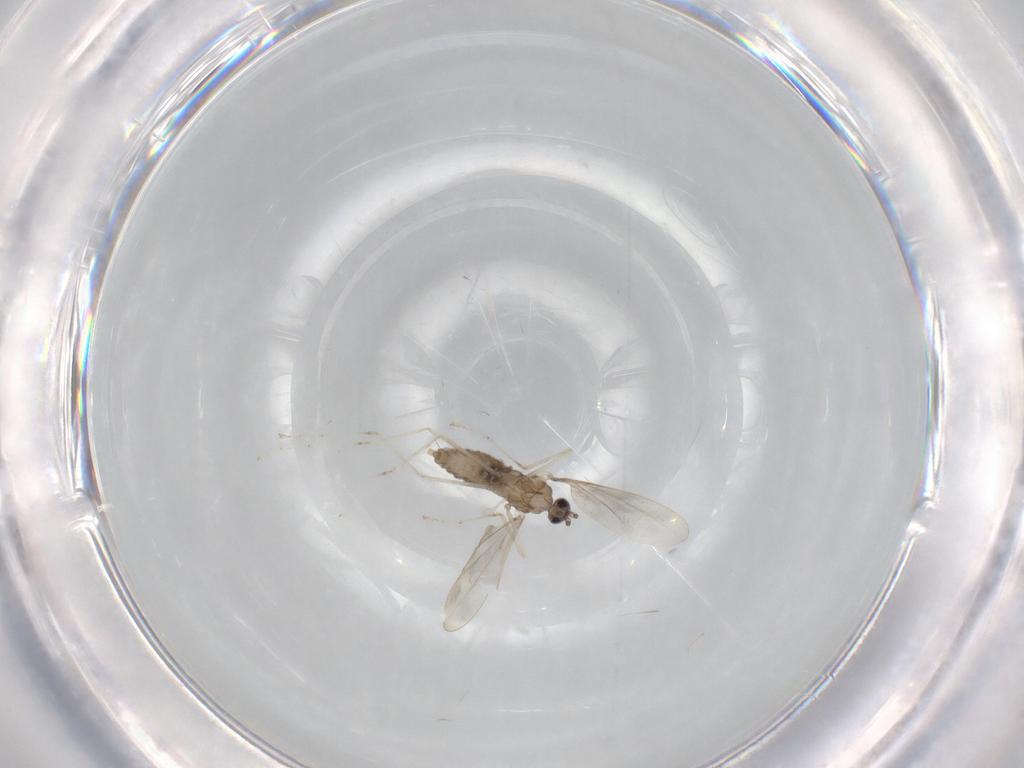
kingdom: Animalia
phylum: Arthropoda
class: Insecta
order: Diptera
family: Cecidomyiidae
